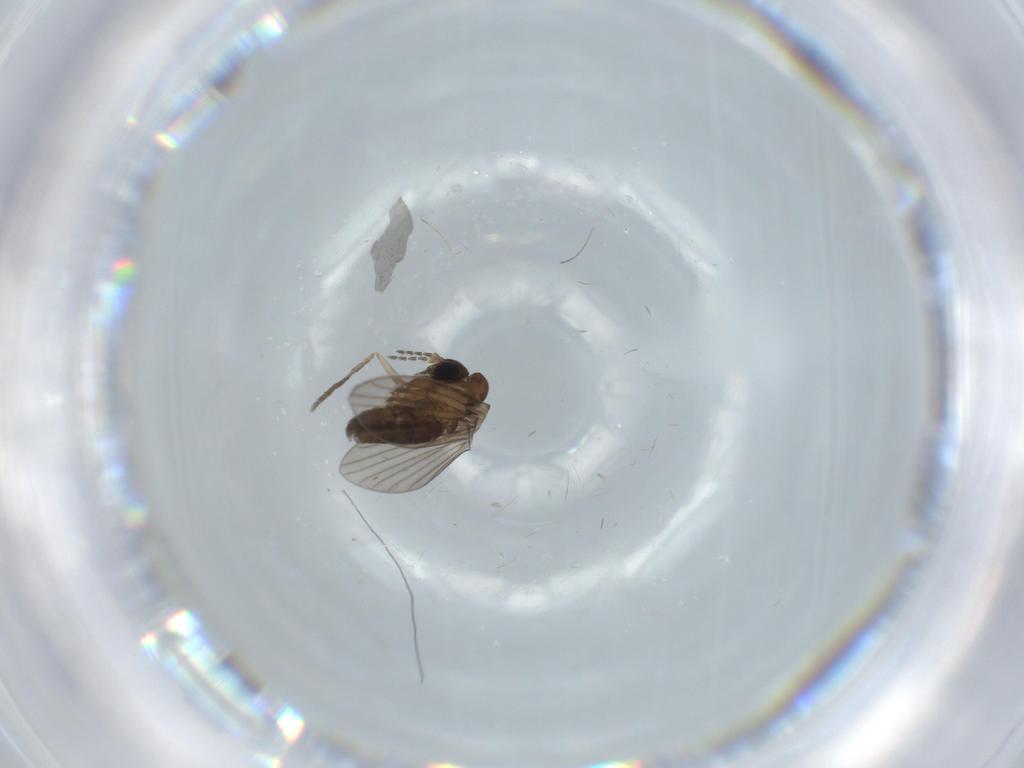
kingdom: Animalia
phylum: Arthropoda
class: Insecta
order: Diptera
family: Psychodidae
